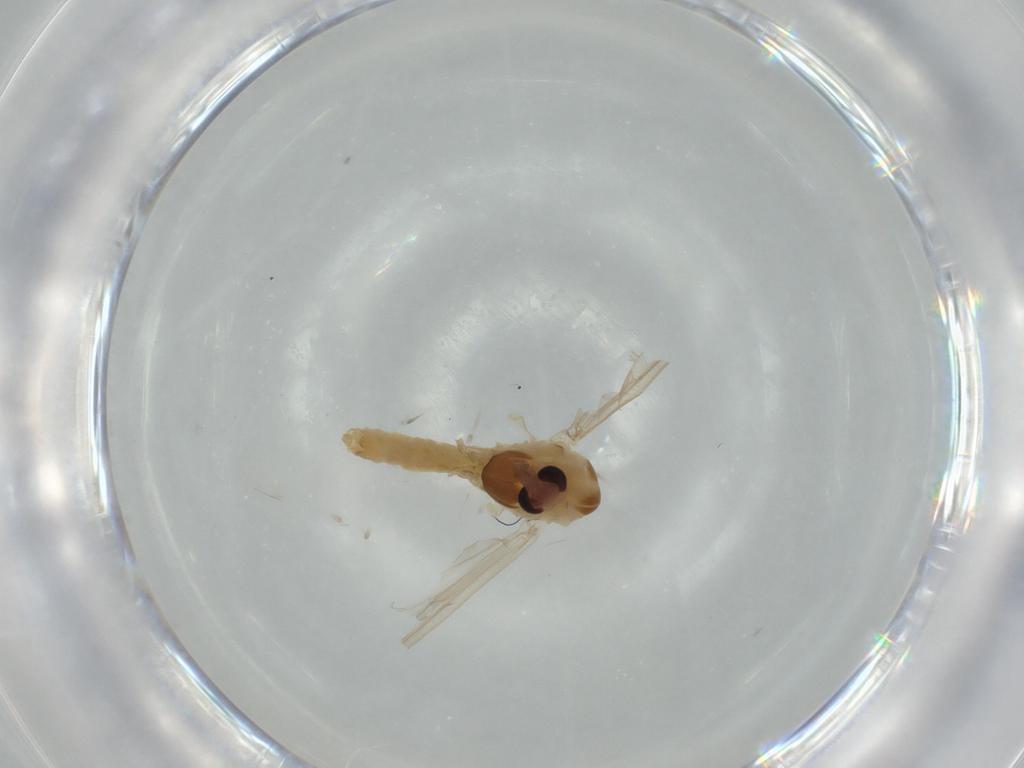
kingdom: Animalia
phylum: Arthropoda
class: Insecta
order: Diptera
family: Chironomidae
